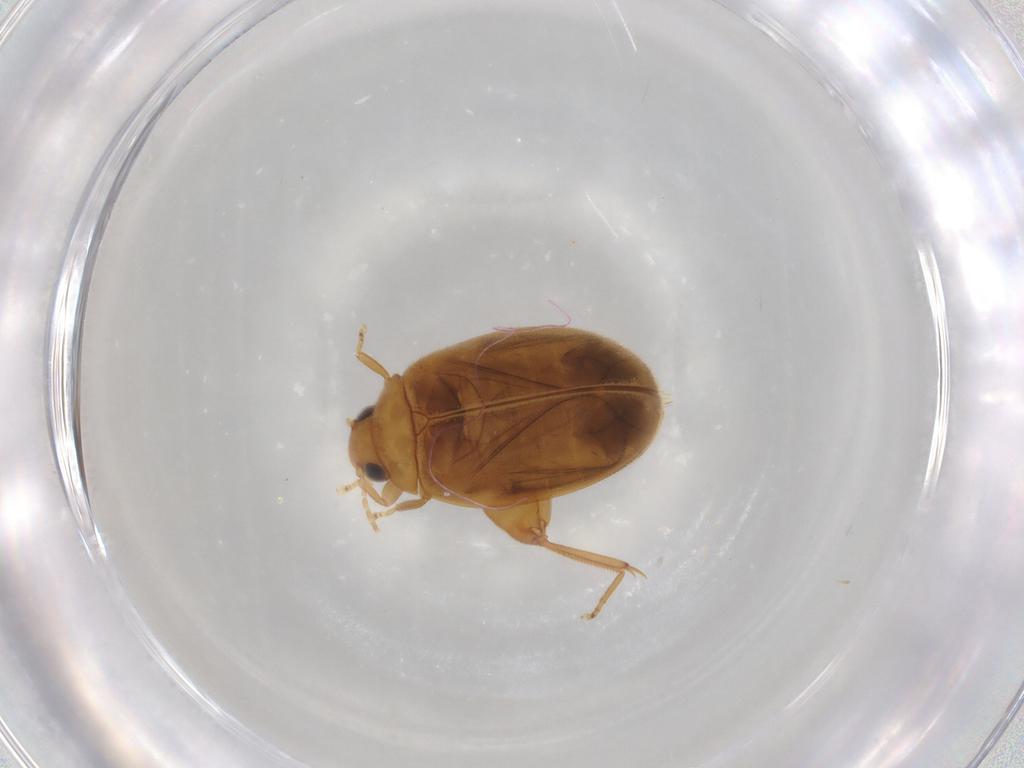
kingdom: Animalia
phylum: Arthropoda
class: Insecta
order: Coleoptera
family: Scirtidae
